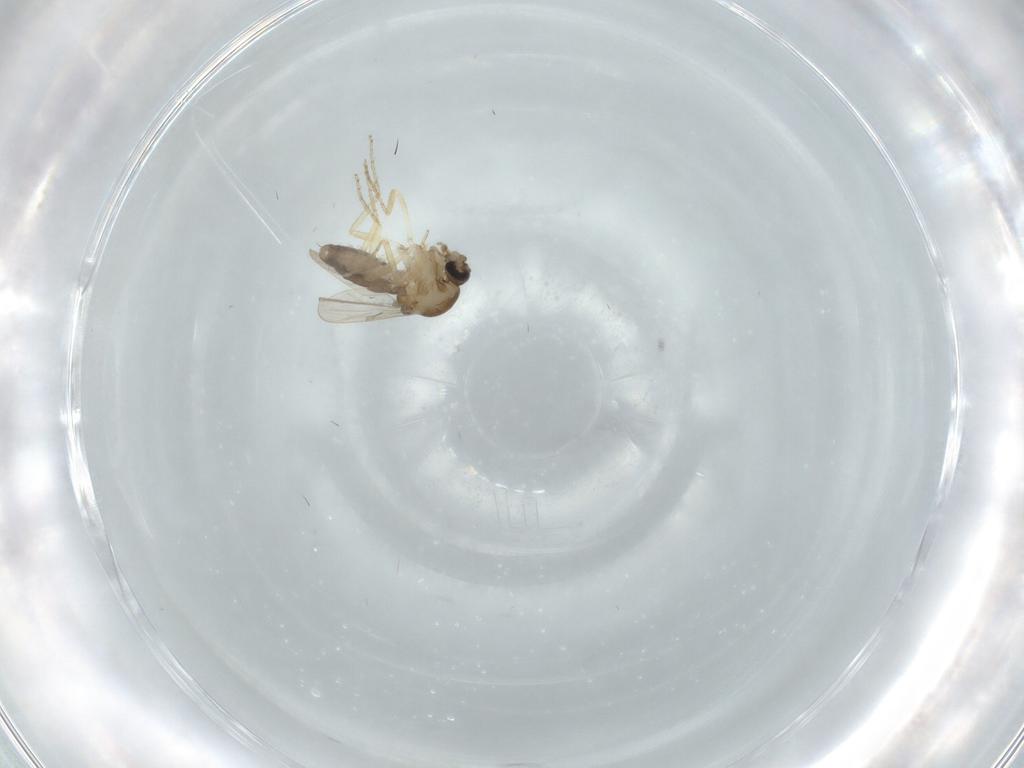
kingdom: Animalia
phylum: Arthropoda
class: Insecta
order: Diptera
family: Ceratopogonidae
